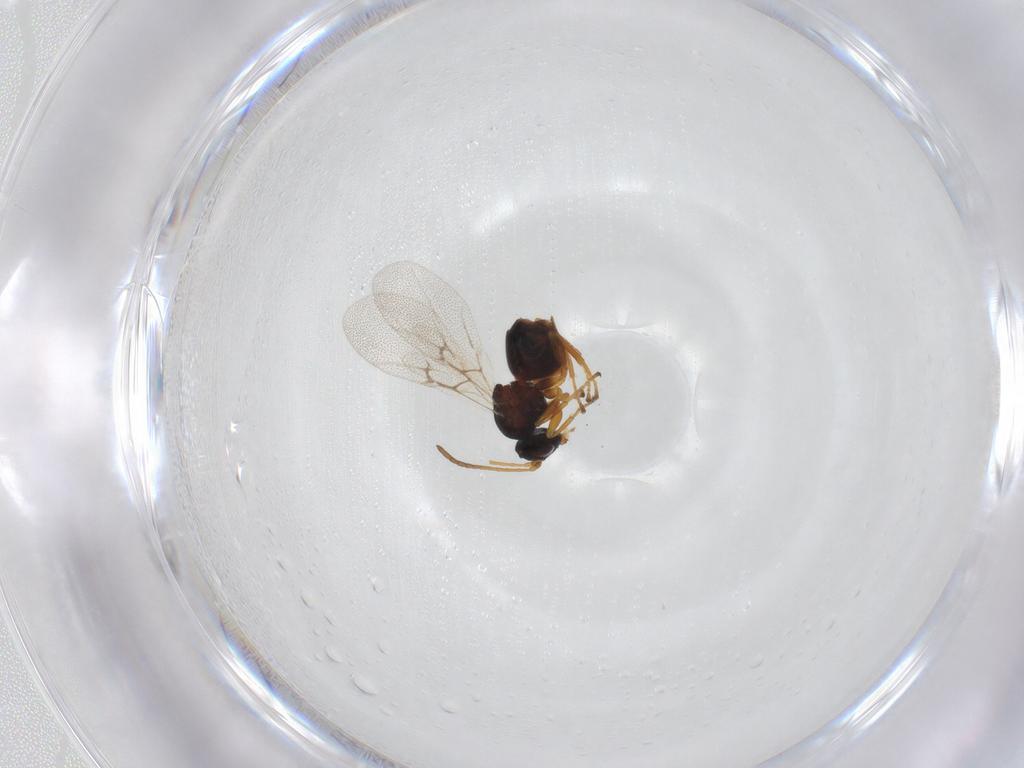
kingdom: Animalia
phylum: Arthropoda
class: Insecta
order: Hymenoptera
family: Cynipidae
